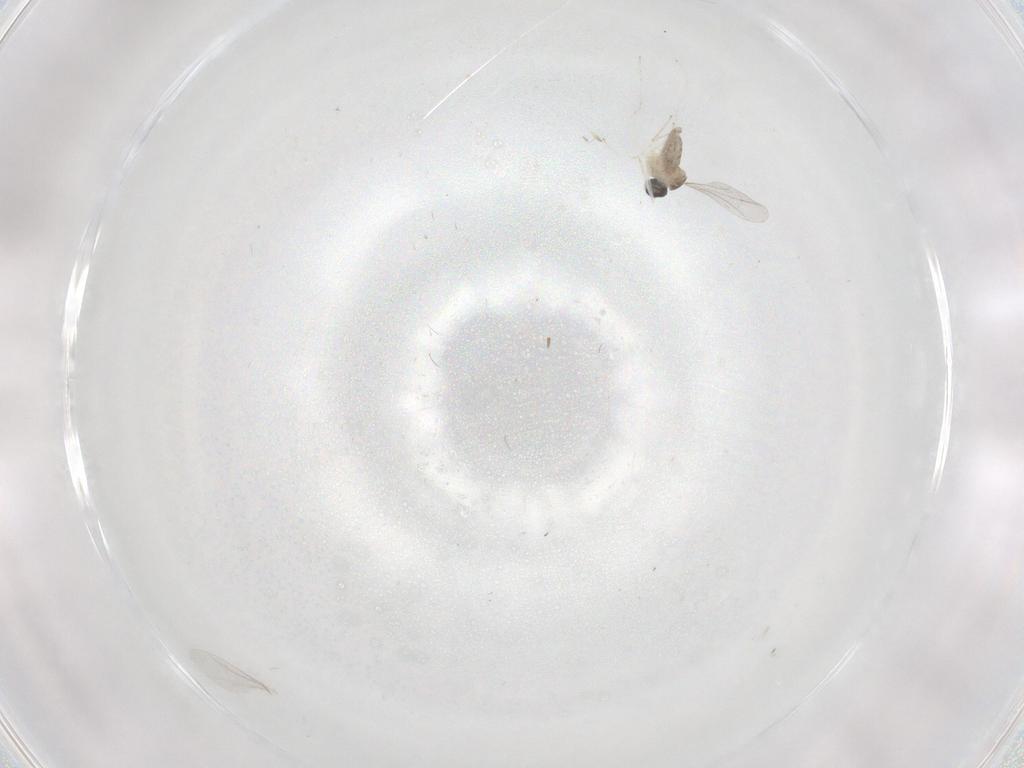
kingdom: Animalia
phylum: Arthropoda
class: Insecta
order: Diptera
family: Cecidomyiidae
